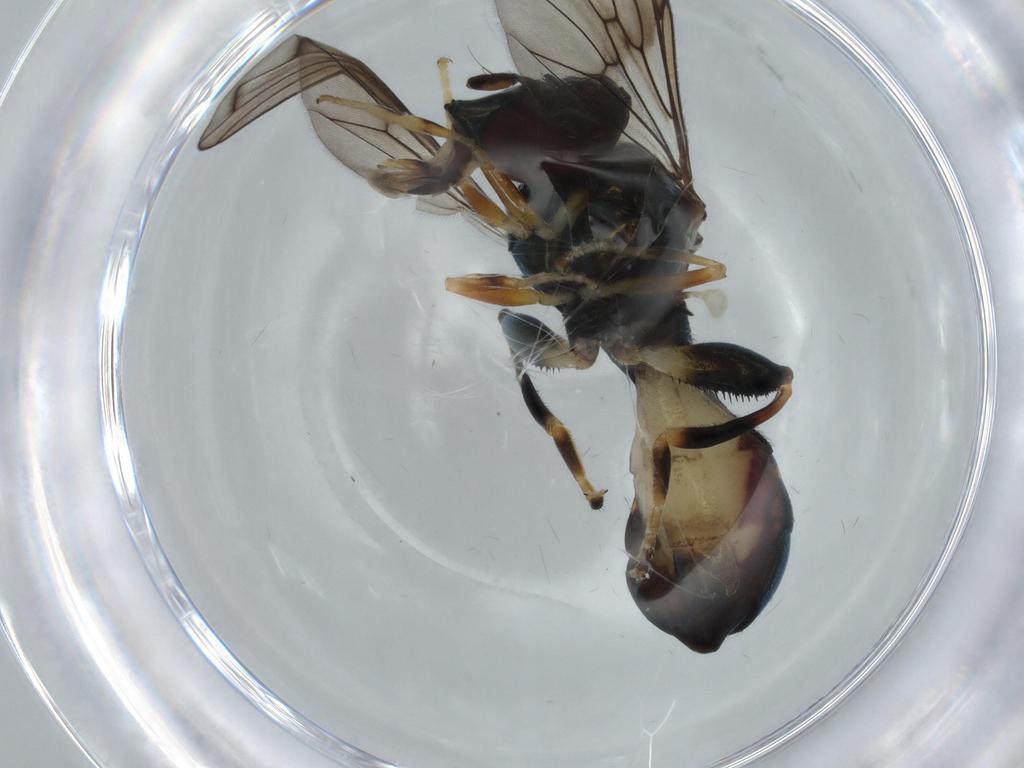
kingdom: Animalia
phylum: Arthropoda
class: Insecta
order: Diptera
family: Syrphidae
